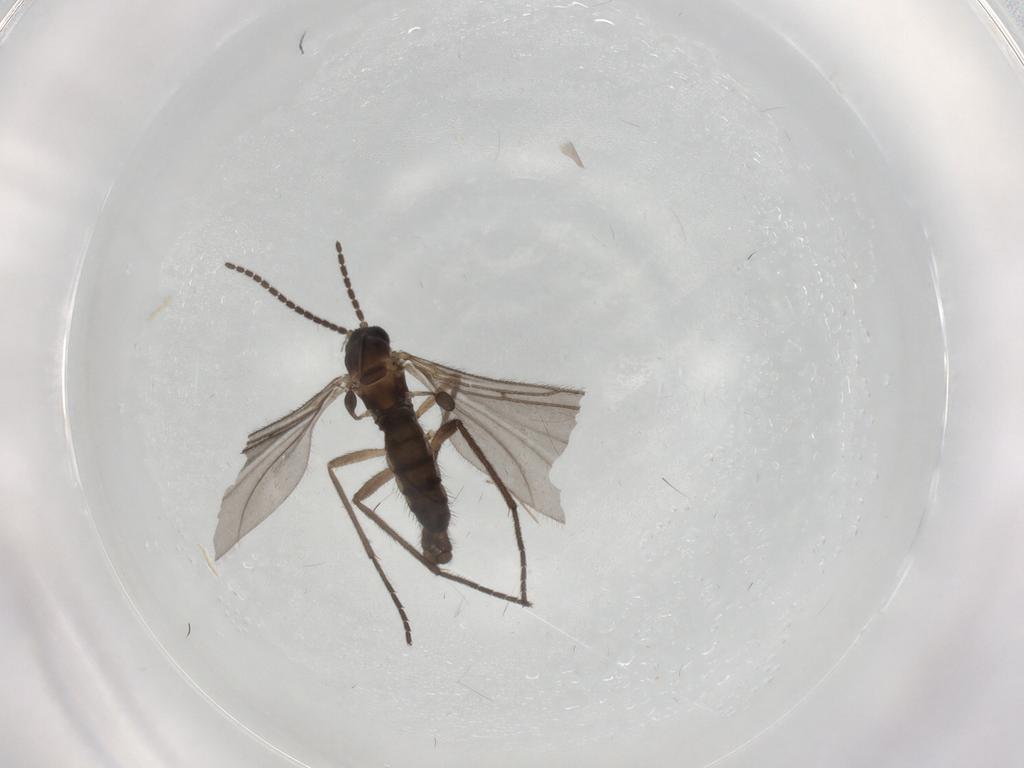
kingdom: Animalia
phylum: Arthropoda
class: Insecta
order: Diptera
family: Sciaridae
